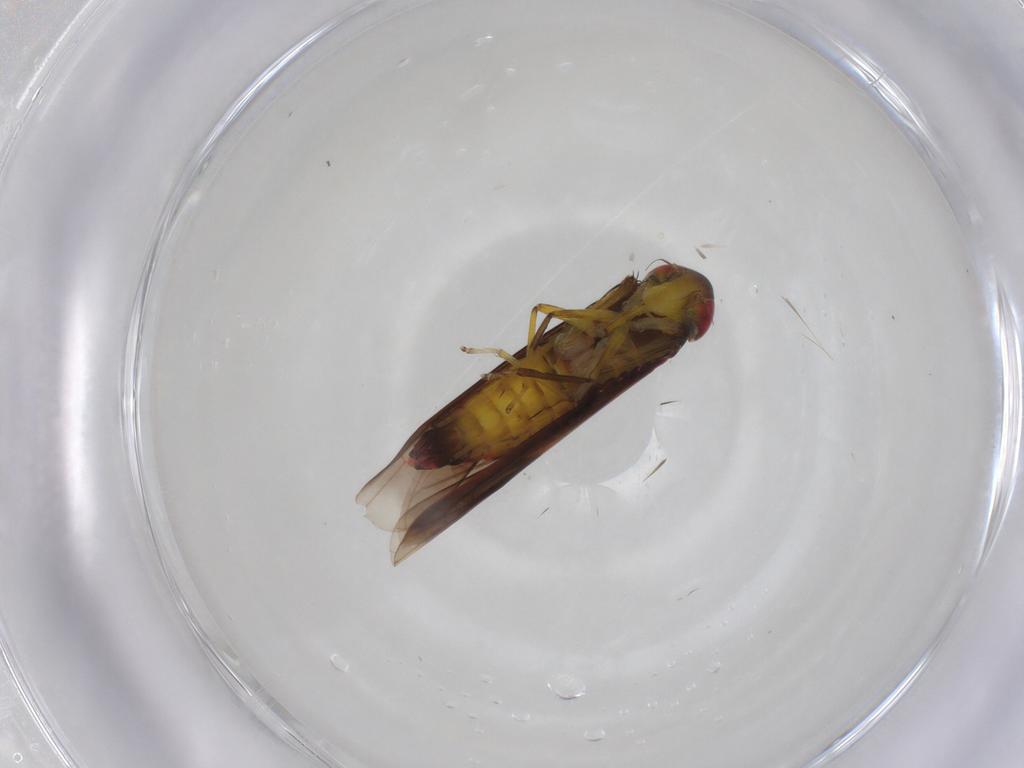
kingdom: Animalia
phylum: Arthropoda
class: Insecta
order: Hemiptera
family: Cicadellidae
